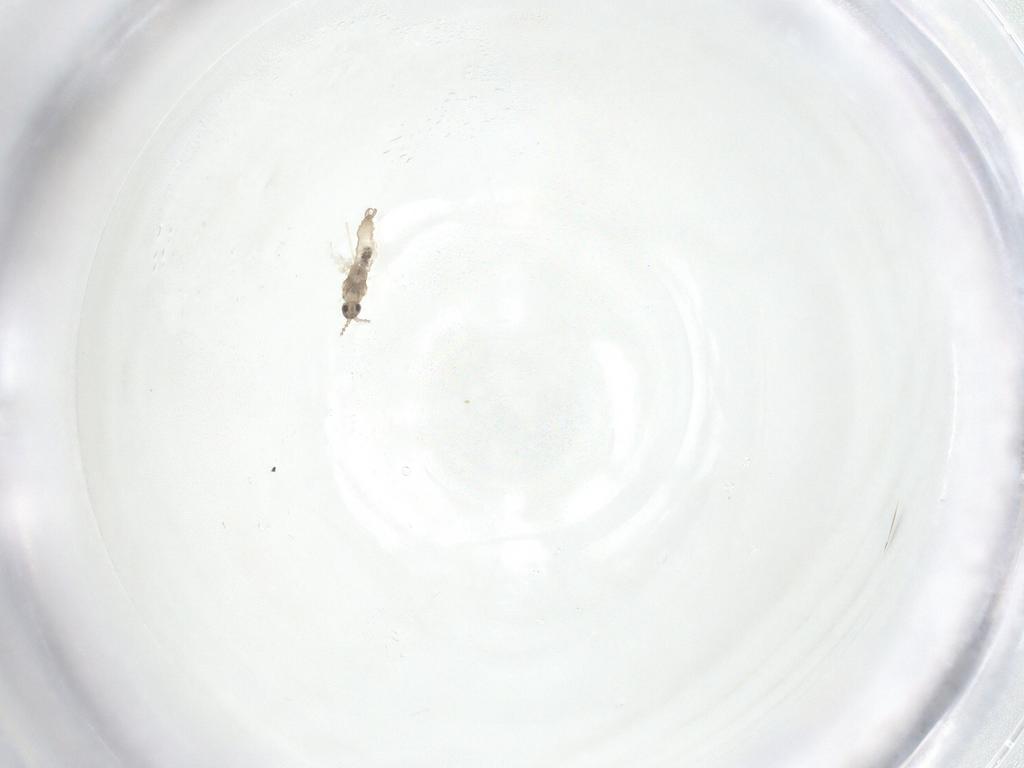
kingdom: Animalia
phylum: Arthropoda
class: Insecta
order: Diptera
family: Cecidomyiidae
